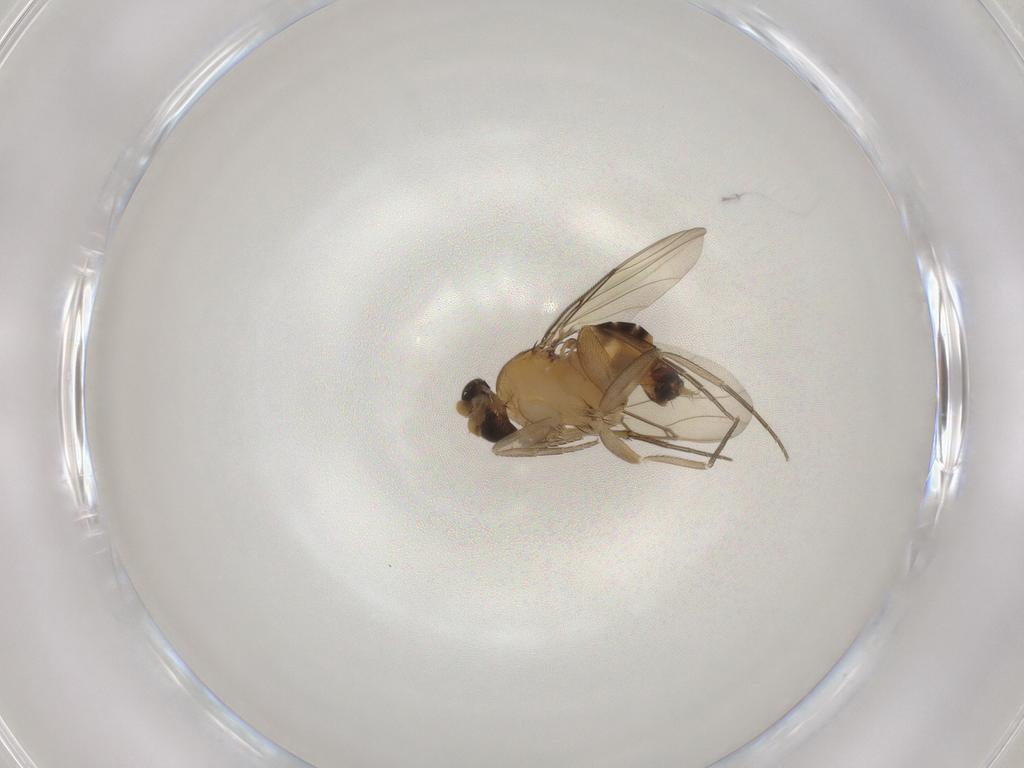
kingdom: Animalia
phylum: Arthropoda
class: Insecta
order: Diptera
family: Phoridae
